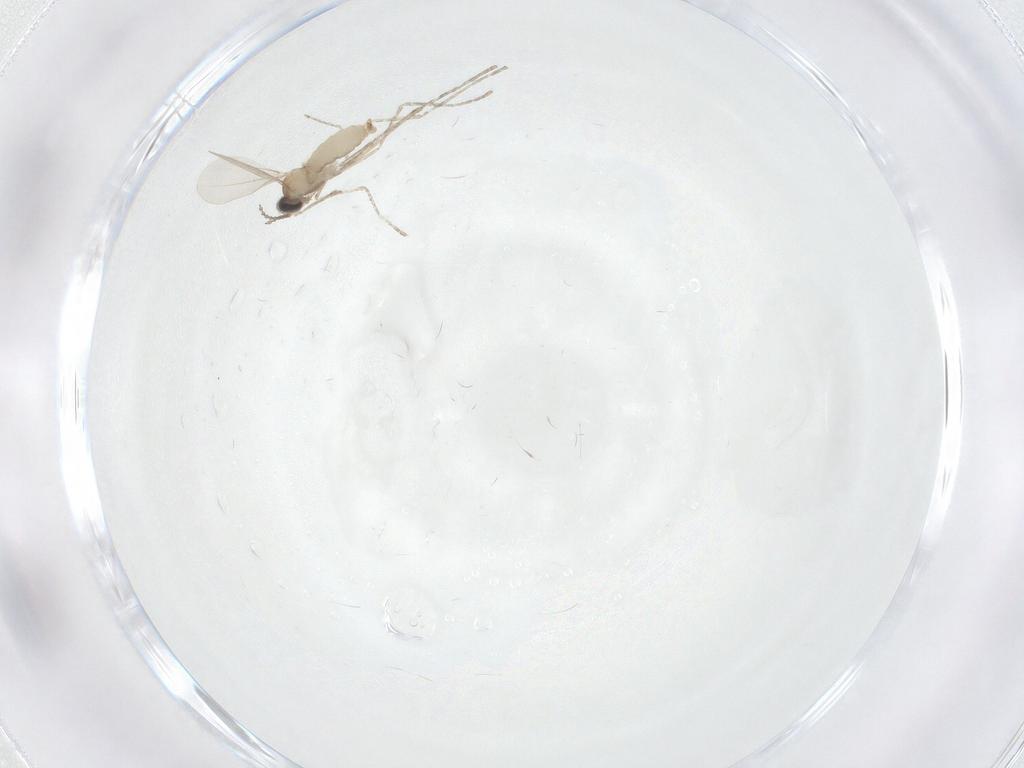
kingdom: Animalia
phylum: Arthropoda
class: Insecta
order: Diptera
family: Cecidomyiidae
